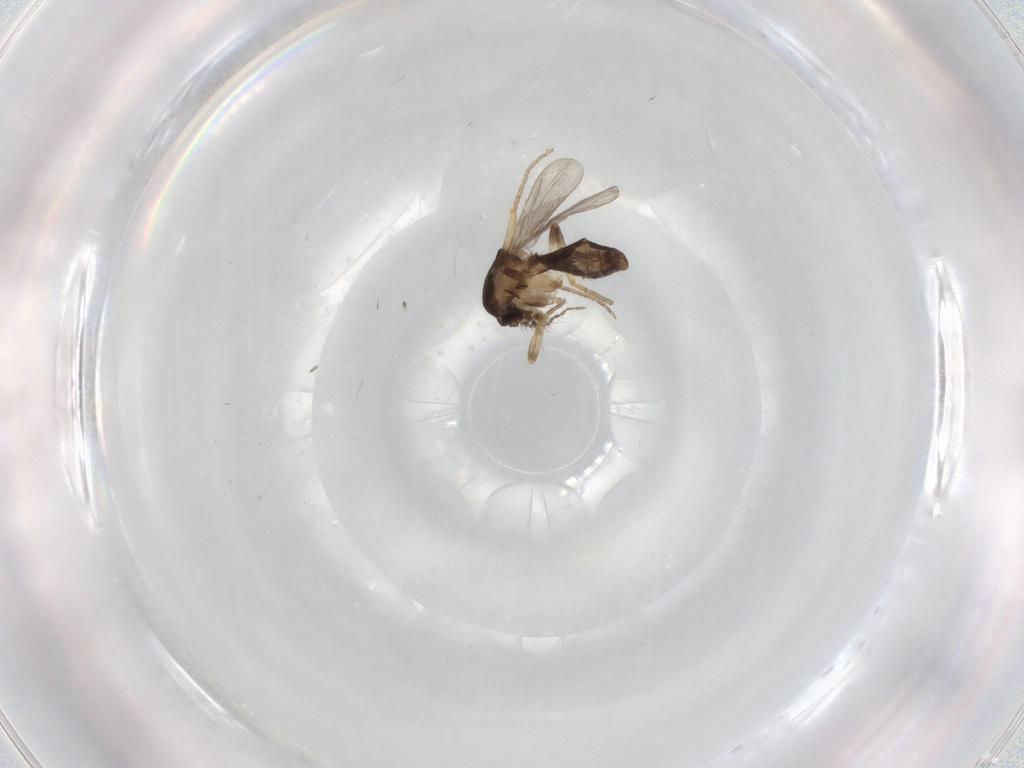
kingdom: Animalia
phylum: Arthropoda
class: Insecta
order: Diptera
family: Ceratopogonidae
